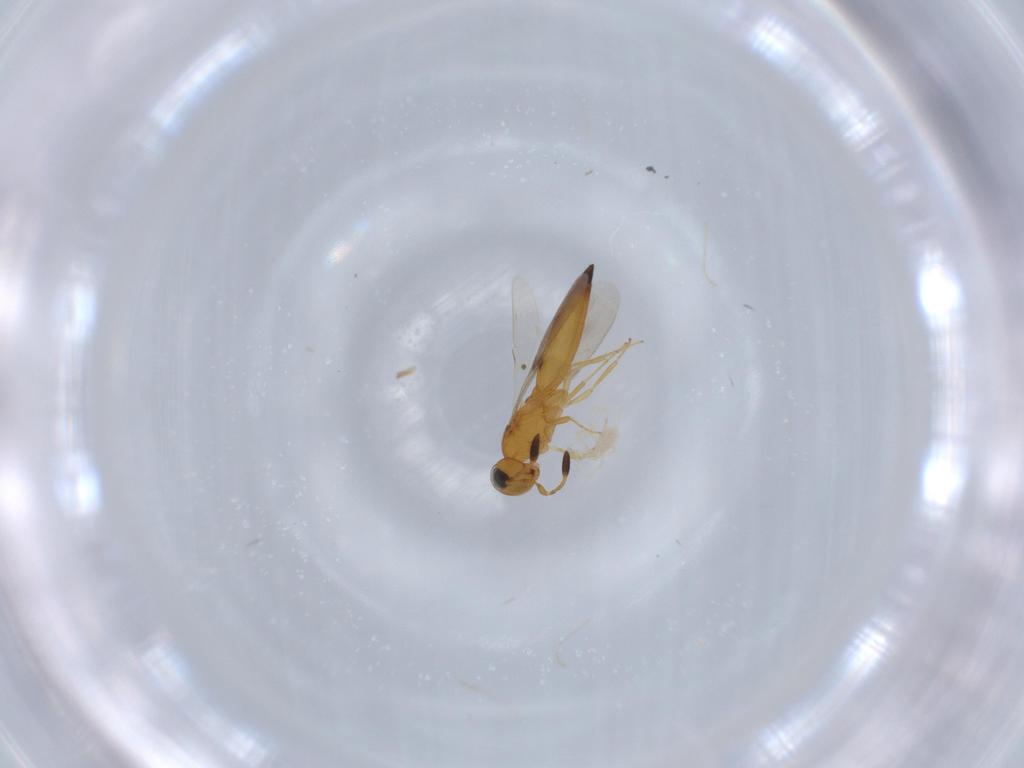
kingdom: Animalia
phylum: Arthropoda
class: Insecta
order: Hymenoptera
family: Scelionidae
